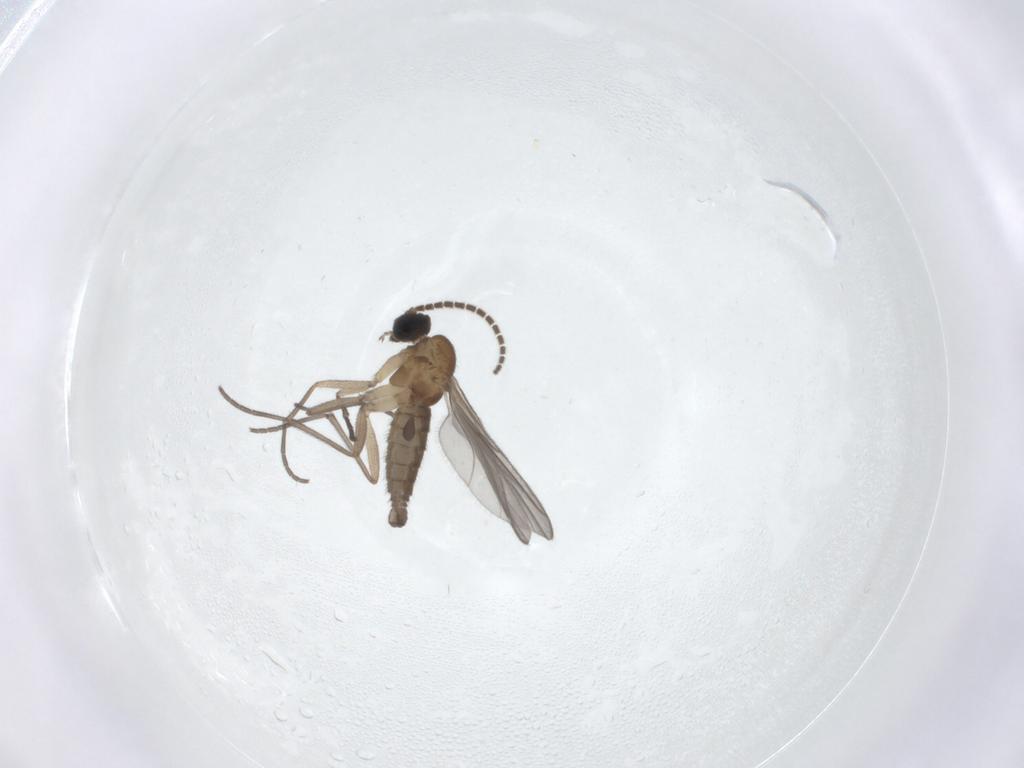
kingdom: Animalia
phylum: Arthropoda
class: Insecta
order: Diptera
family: Sciaridae
